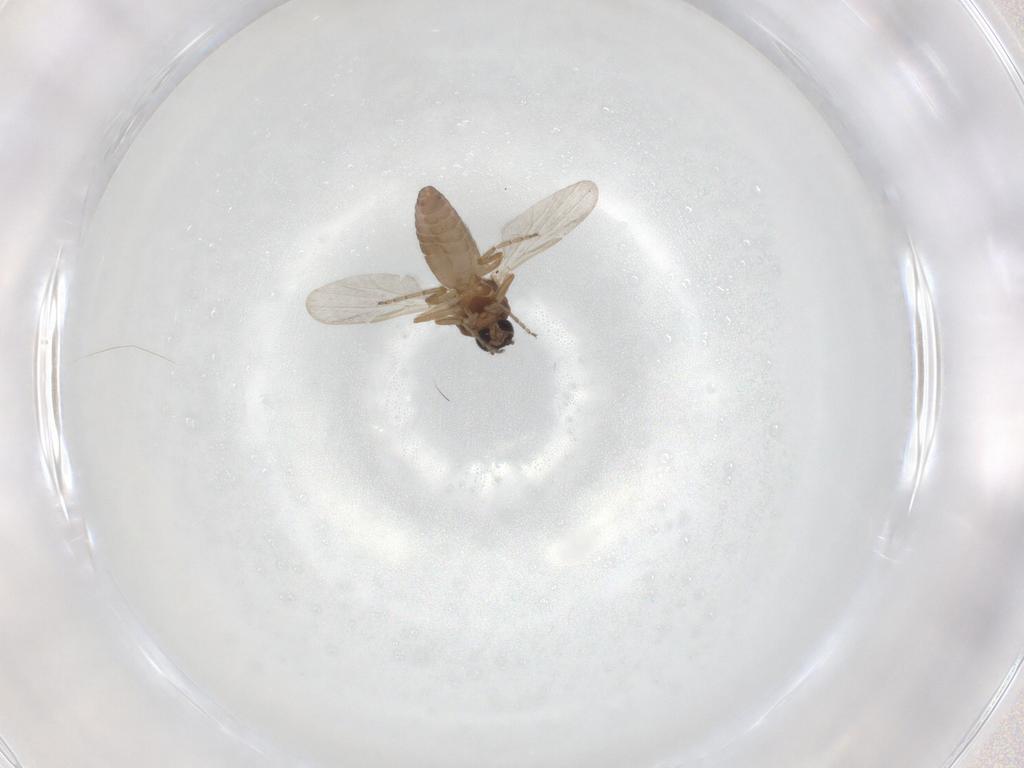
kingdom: Animalia
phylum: Arthropoda
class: Insecta
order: Diptera
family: Ceratopogonidae
